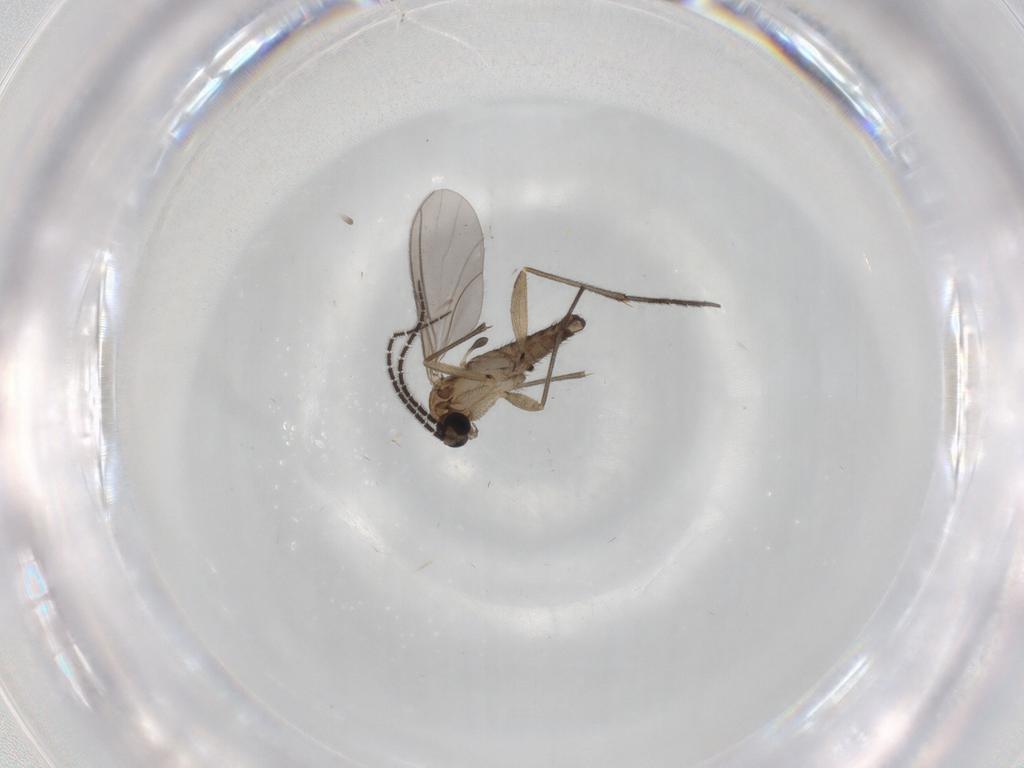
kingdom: Animalia
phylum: Arthropoda
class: Insecta
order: Diptera
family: Sciaridae
